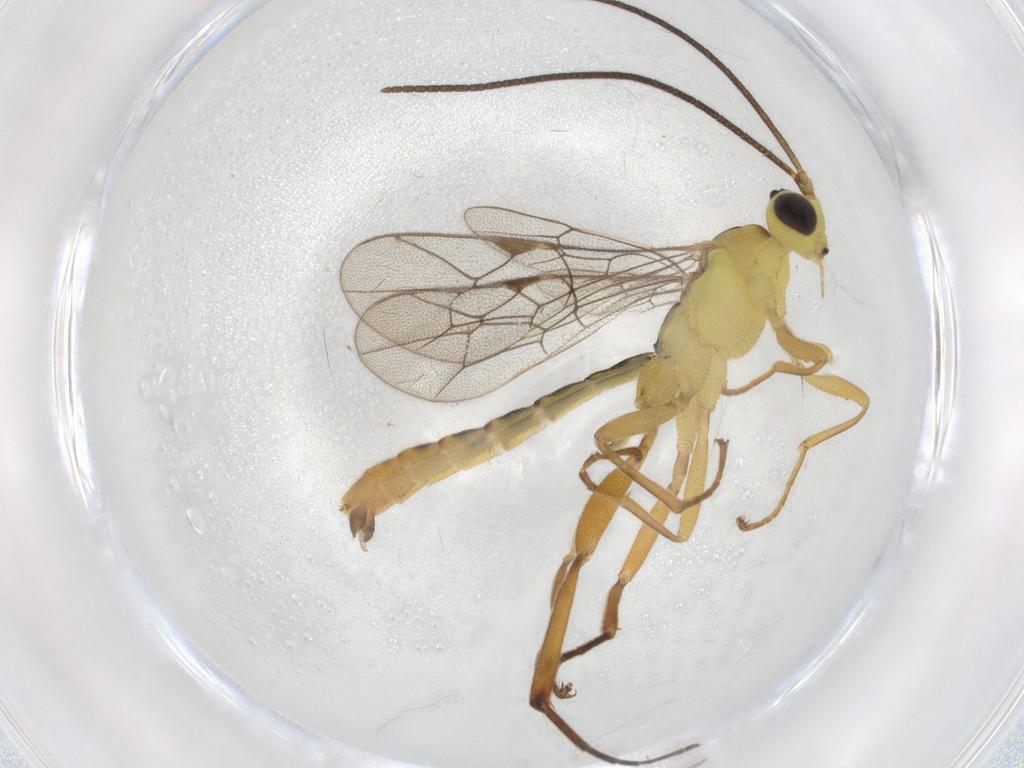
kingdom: Animalia
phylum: Arthropoda
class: Insecta
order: Hymenoptera
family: Ichneumonidae
